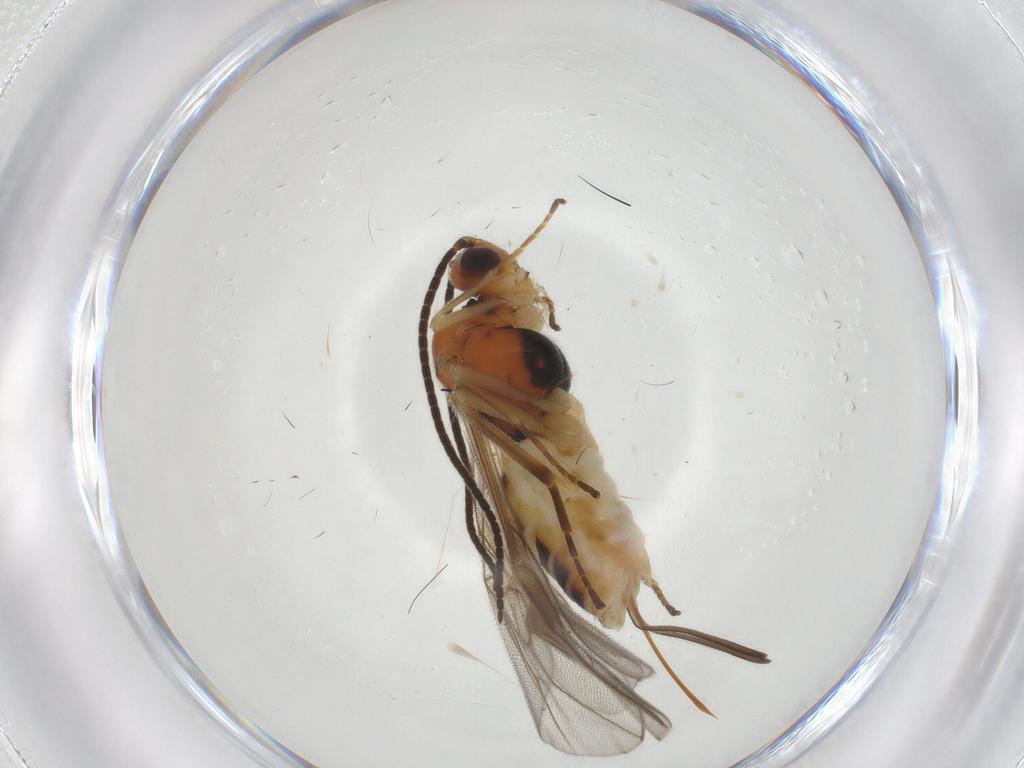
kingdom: Animalia
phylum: Arthropoda
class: Insecta
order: Hymenoptera
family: Braconidae
